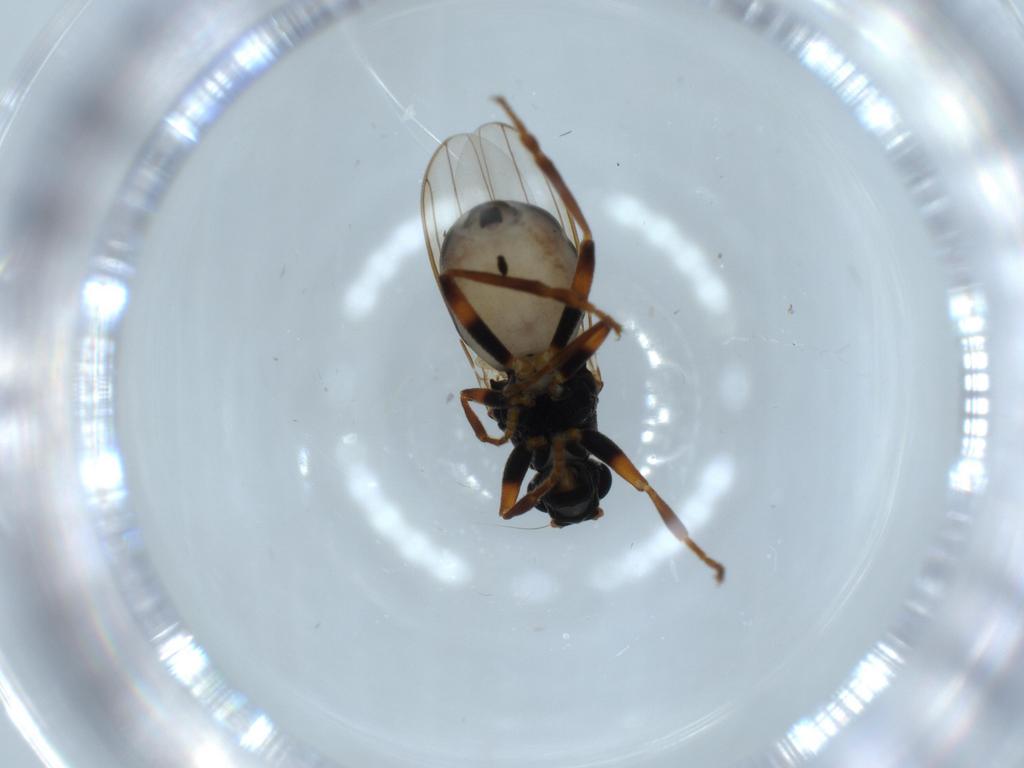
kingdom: Animalia
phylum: Arthropoda
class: Insecta
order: Diptera
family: Sphaeroceridae
